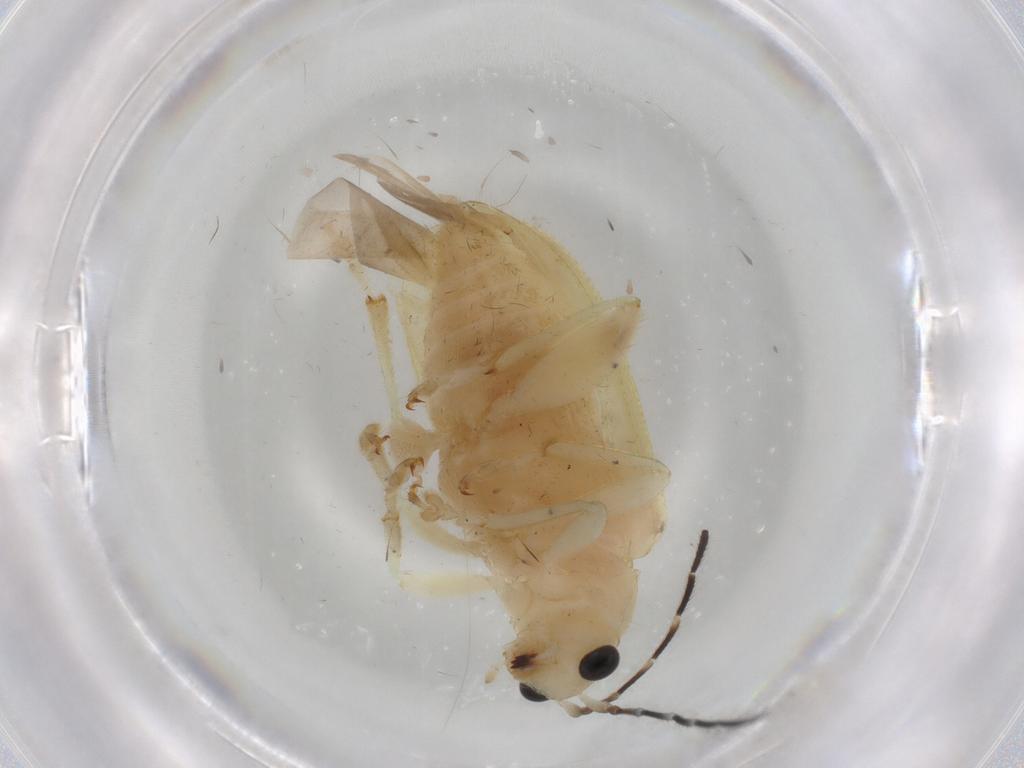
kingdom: Animalia
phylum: Arthropoda
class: Insecta
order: Coleoptera
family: Chrysomelidae
